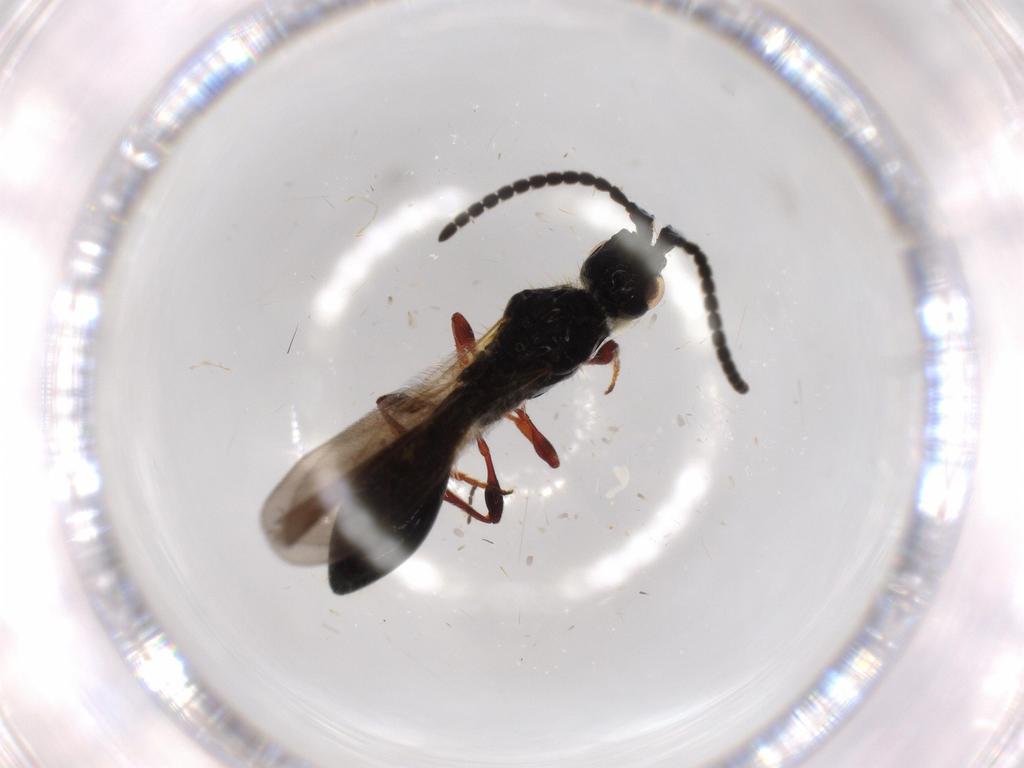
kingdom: Animalia
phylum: Arthropoda
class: Insecta
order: Hymenoptera
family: Diapriidae
